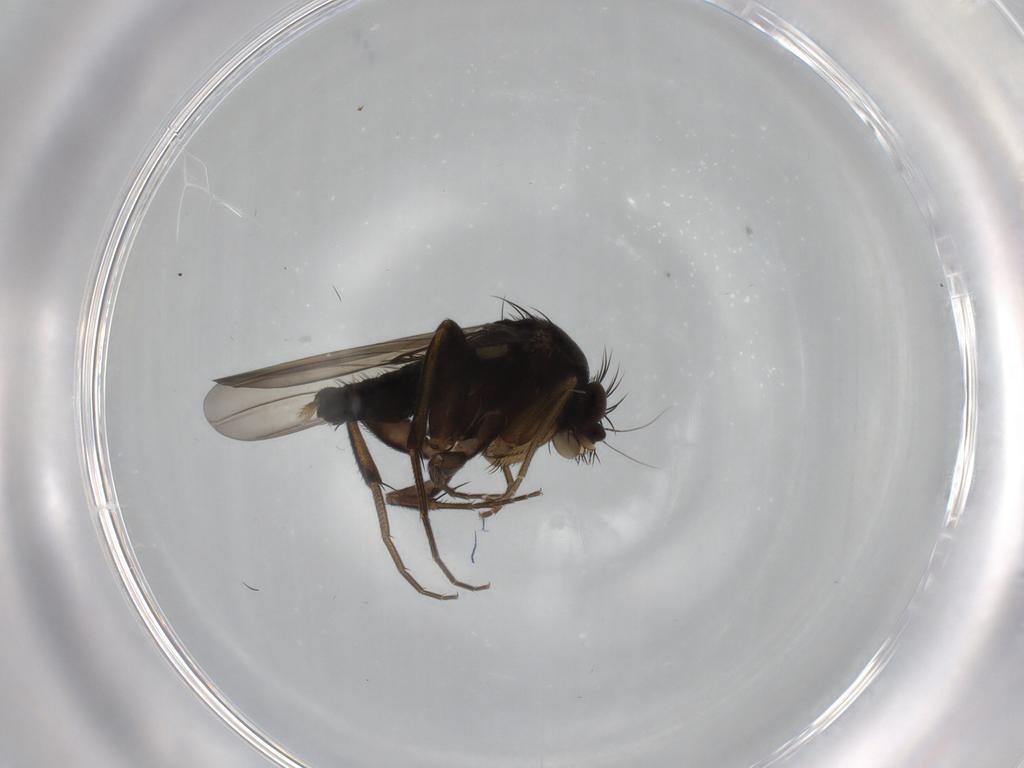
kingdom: Animalia
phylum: Arthropoda
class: Insecta
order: Diptera
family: Phoridae
